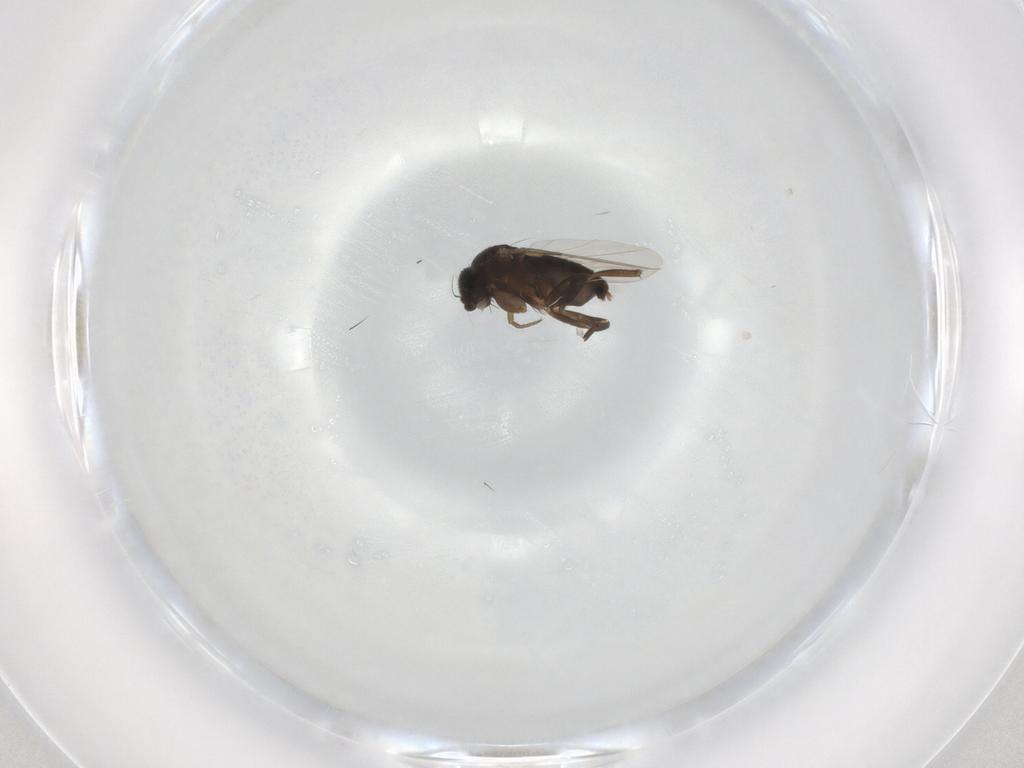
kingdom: Animalia
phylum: Arthropoda
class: Insecta
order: Diptera
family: Phoridae
